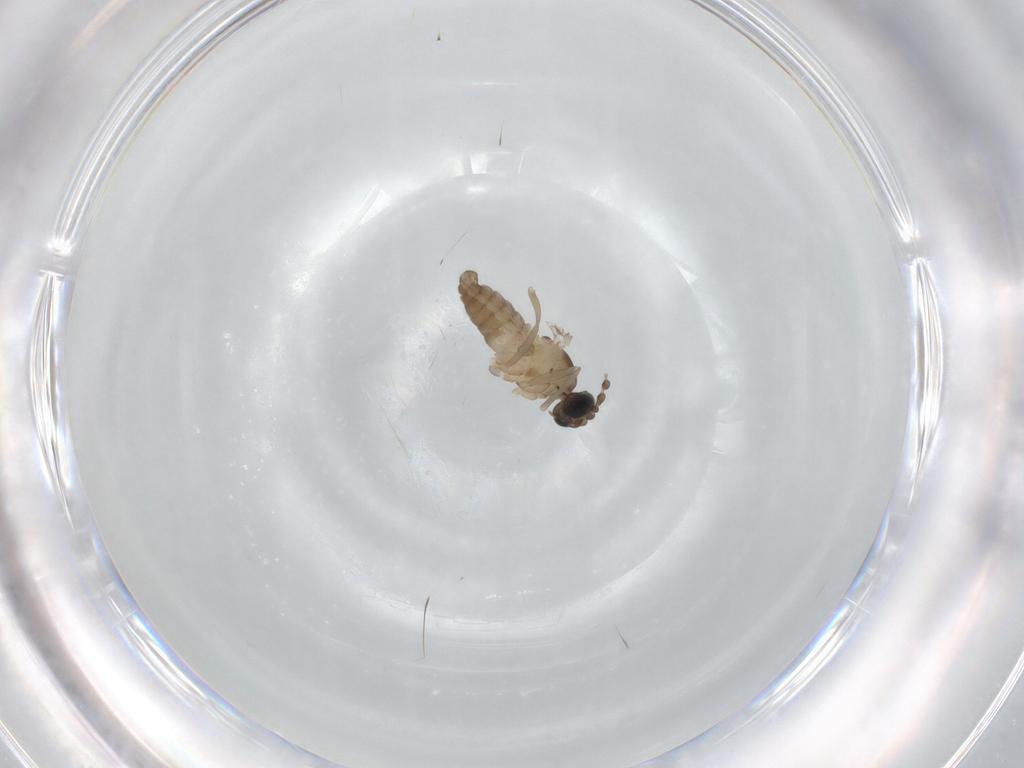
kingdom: Animalia
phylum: Arthropoda
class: Insecta
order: Diptera
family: Cecidomyiidae
